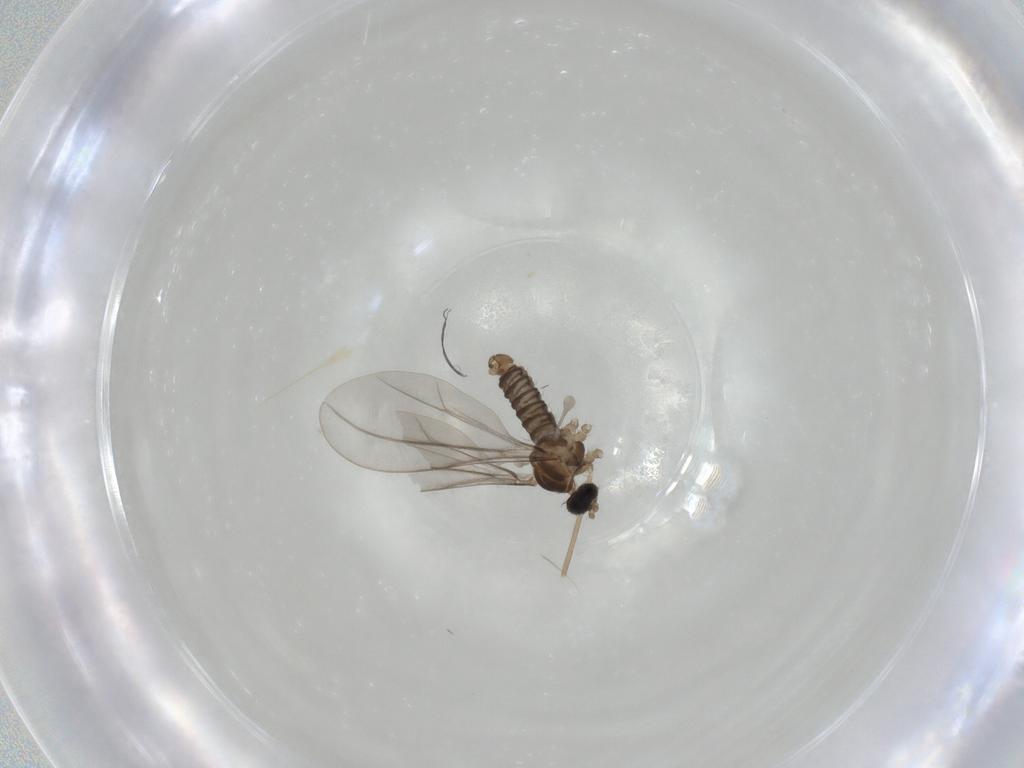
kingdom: Animalia
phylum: Arthropoda
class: Insecta
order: Diptera
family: Cecidomyiidae
